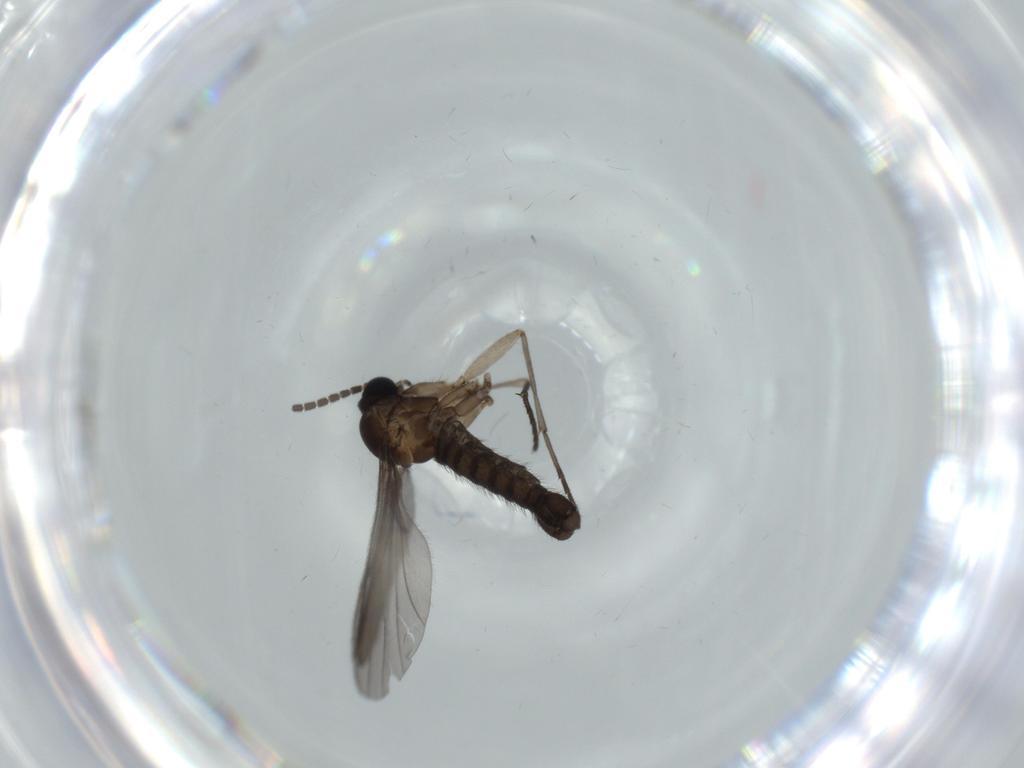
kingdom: Animalia
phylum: Arthropoda
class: Insecta
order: Diptera
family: Sciaridae
